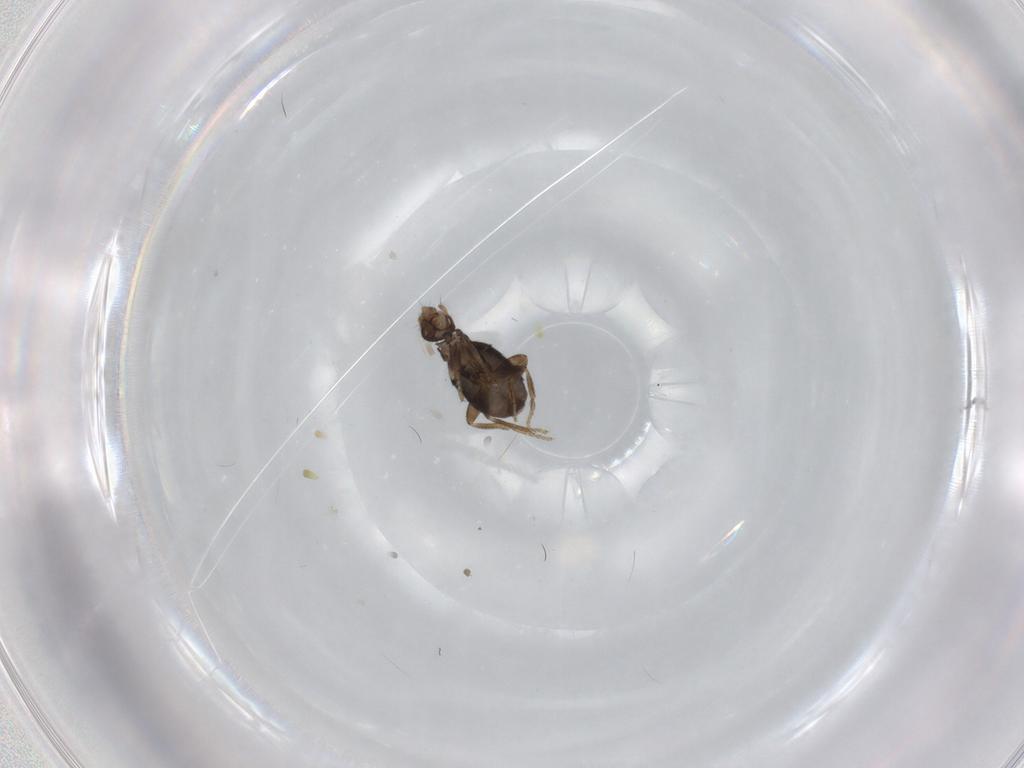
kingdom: Animalia
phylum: Arthropoda
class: Insecta
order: Diptera
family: Phoridae
